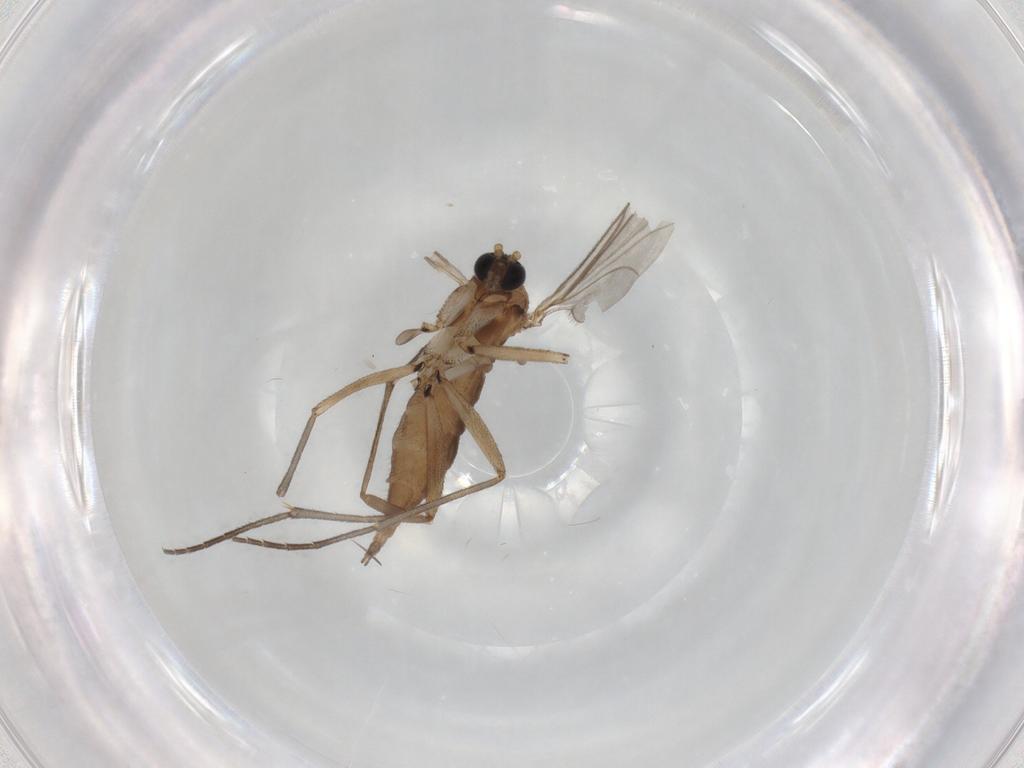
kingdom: Animalia
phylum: Arthropoda
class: Insecta
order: Diptera
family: Sciaridae
